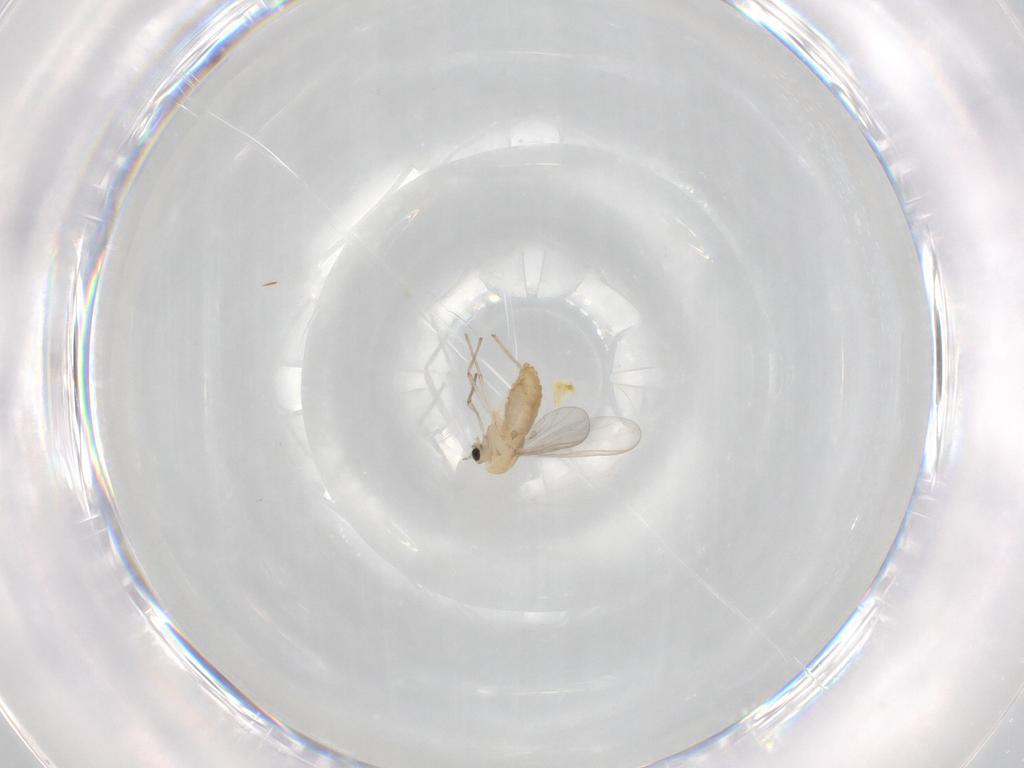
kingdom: Animalia
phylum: Arthropoda
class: Insecta
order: Diptera
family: Chironomidae
